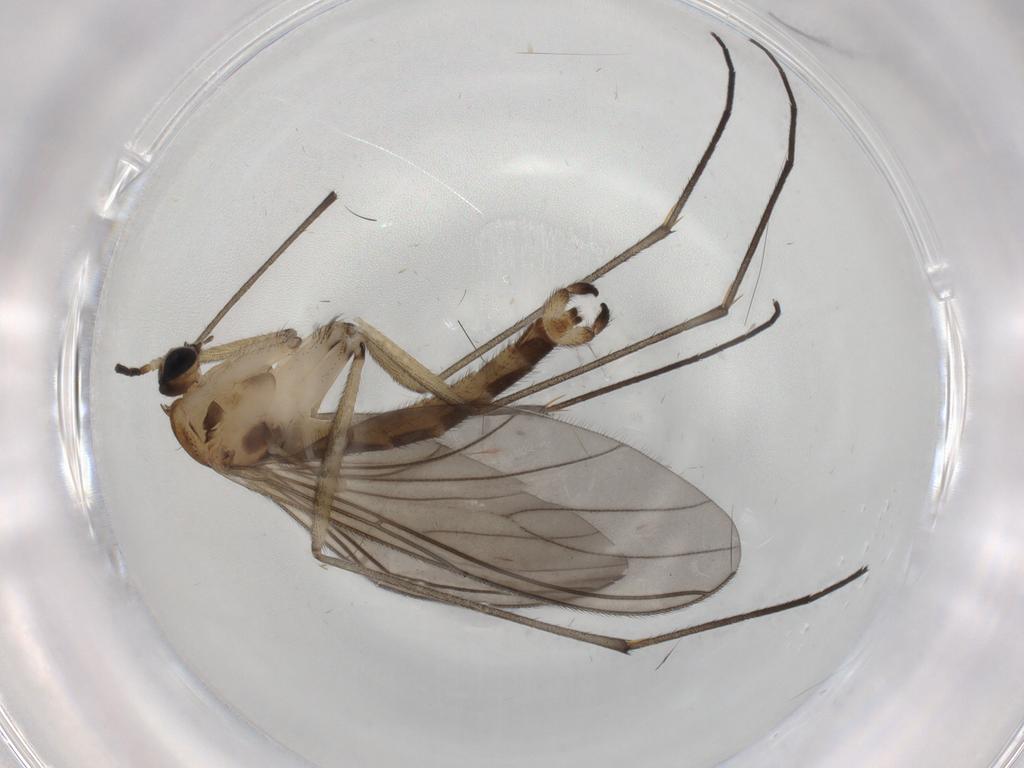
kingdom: Animalia
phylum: Arthropoda
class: Insecta
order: Diptera
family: Sciaridae
